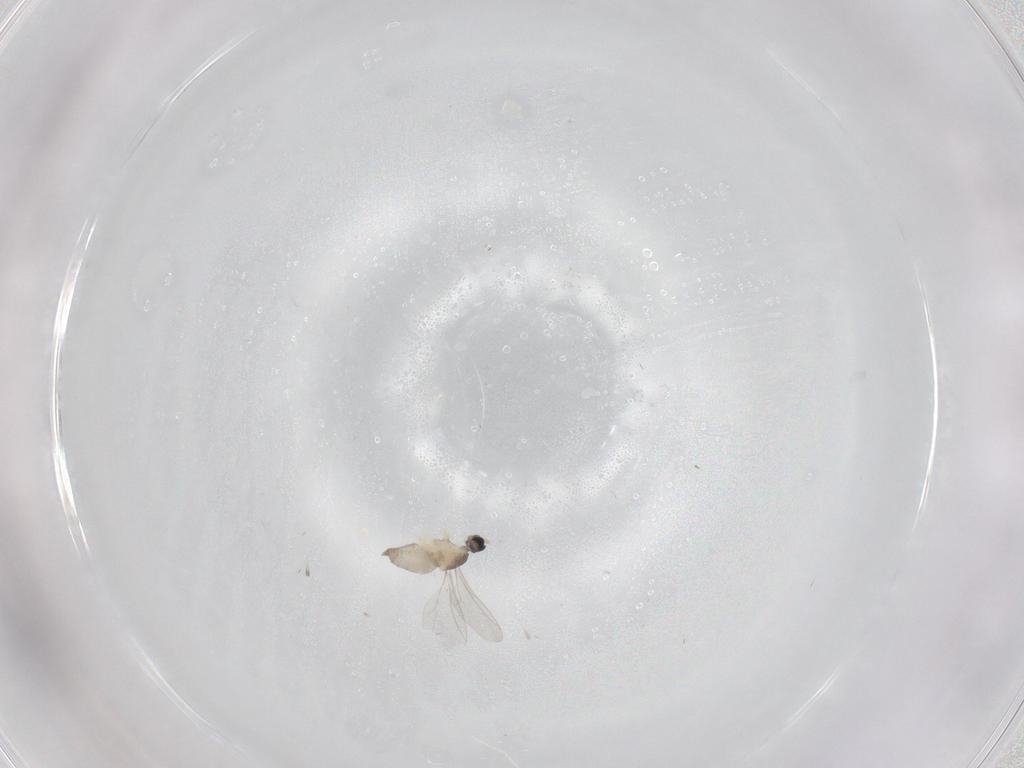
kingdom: Animalia
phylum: Arthropoda
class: Insecta
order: Diptera
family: Cecidomyiidae
